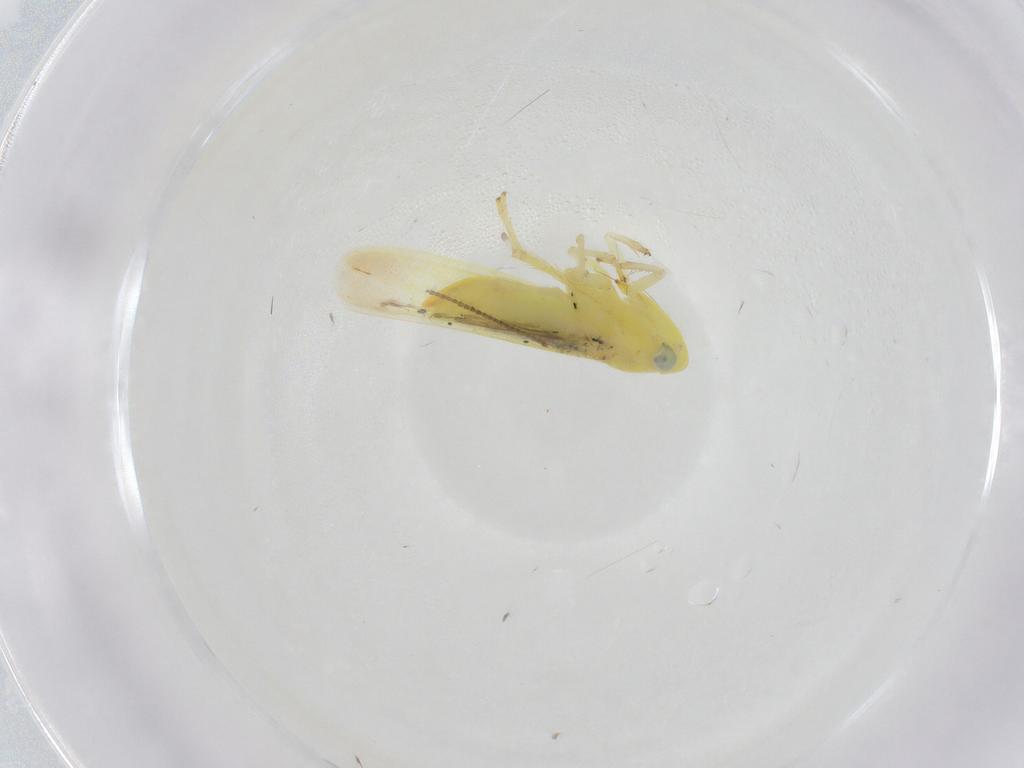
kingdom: Animalia
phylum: Arthropoda
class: Insecta
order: Hemiptera
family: Cicadellidae
